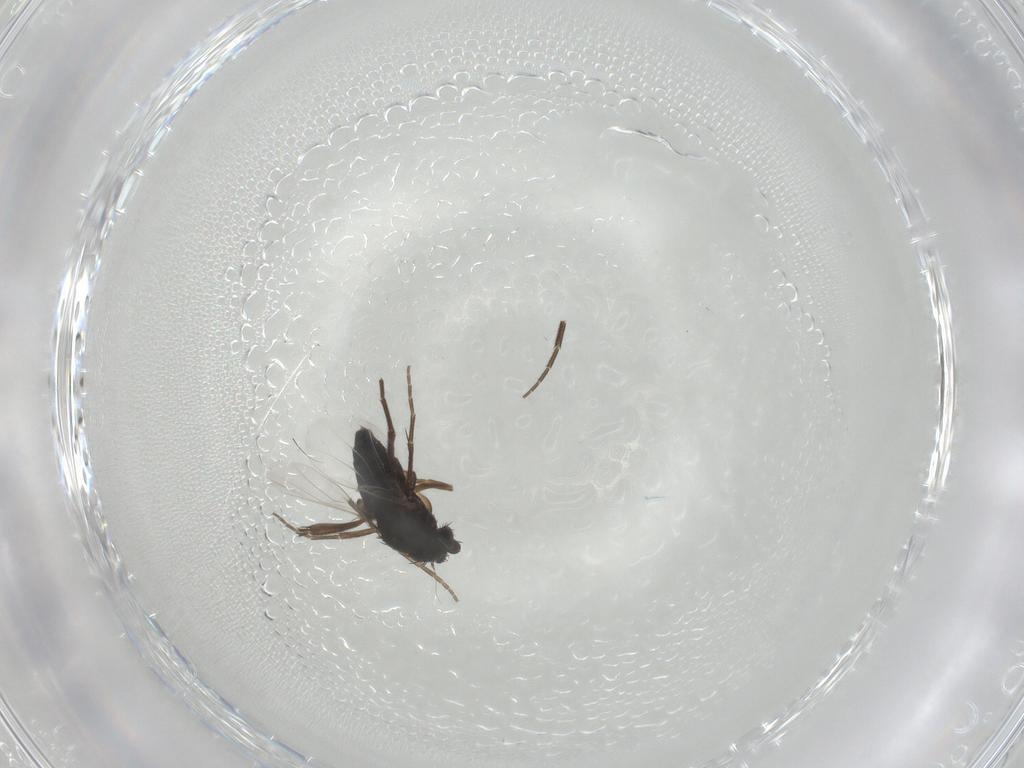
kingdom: Animalia
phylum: Arthropoda
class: Insecta
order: Diptera
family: Phoridae
